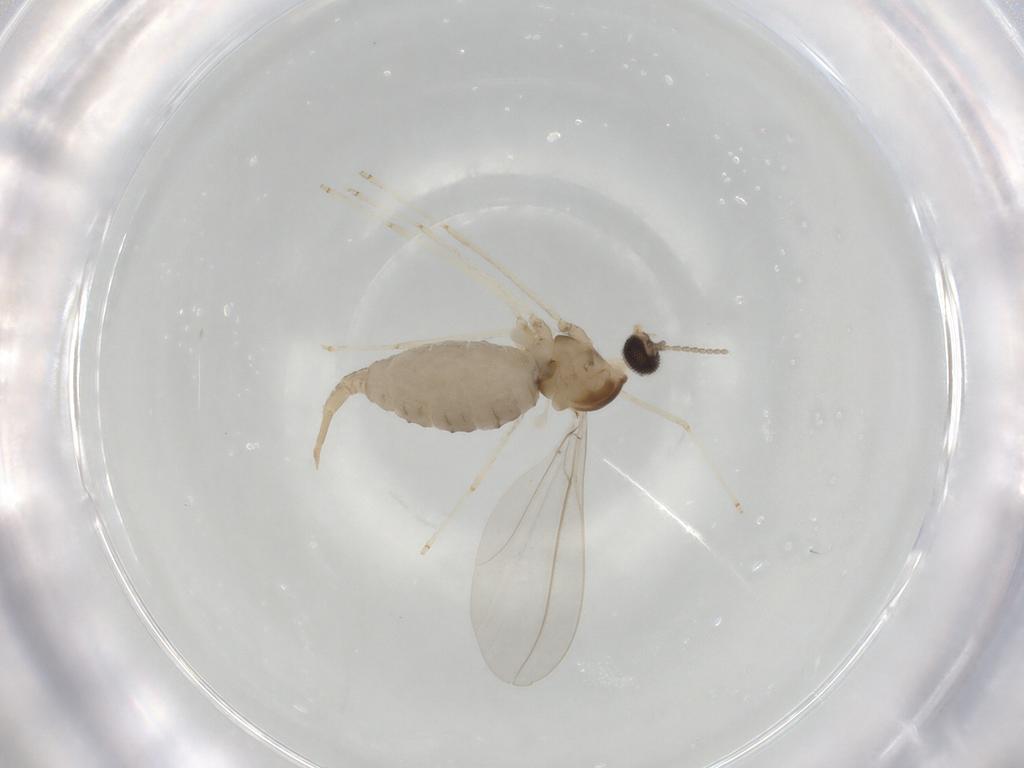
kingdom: Animalia
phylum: Arthropoda
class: Insecta
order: Diptera
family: Cecidomyiidae
